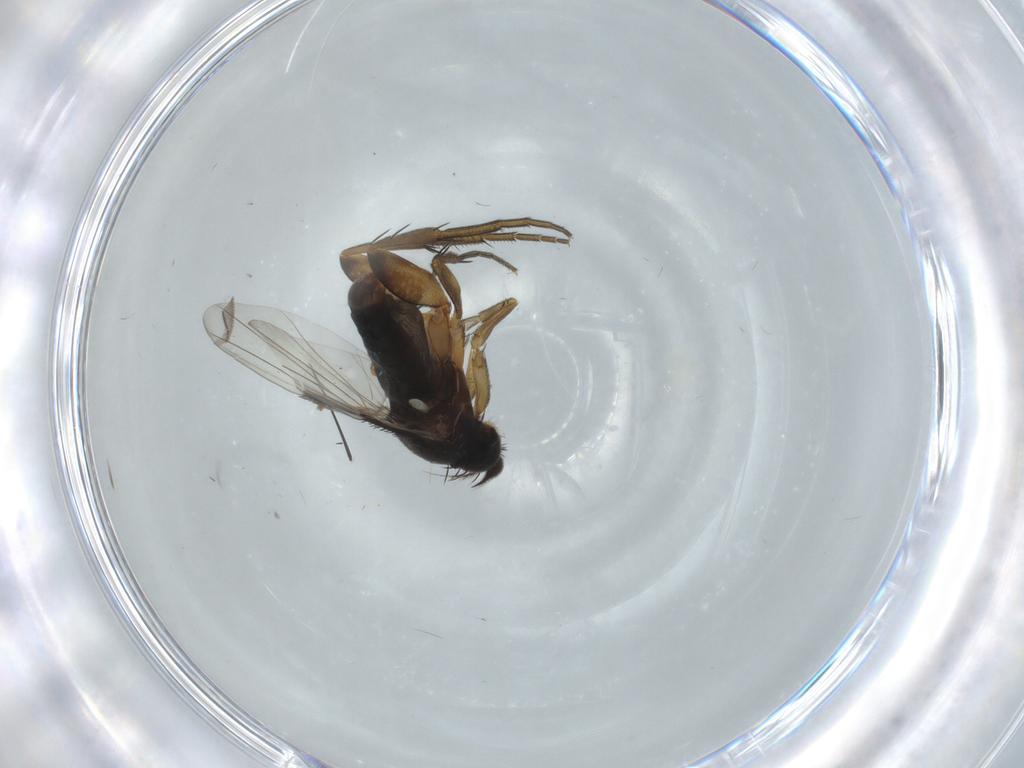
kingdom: Animalia
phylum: Arthropoda
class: Insecta
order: Diptera
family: Phoridae
